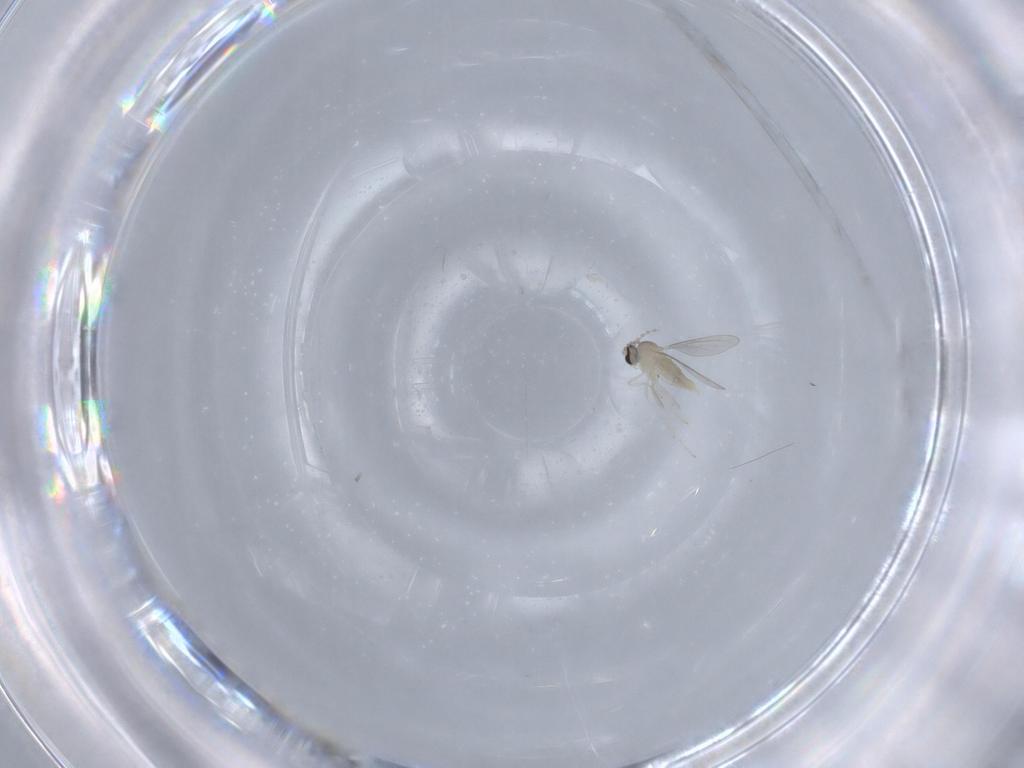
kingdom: Animalia
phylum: Arthropoda
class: Insecta
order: Diptera
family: Cecidomyiidae
